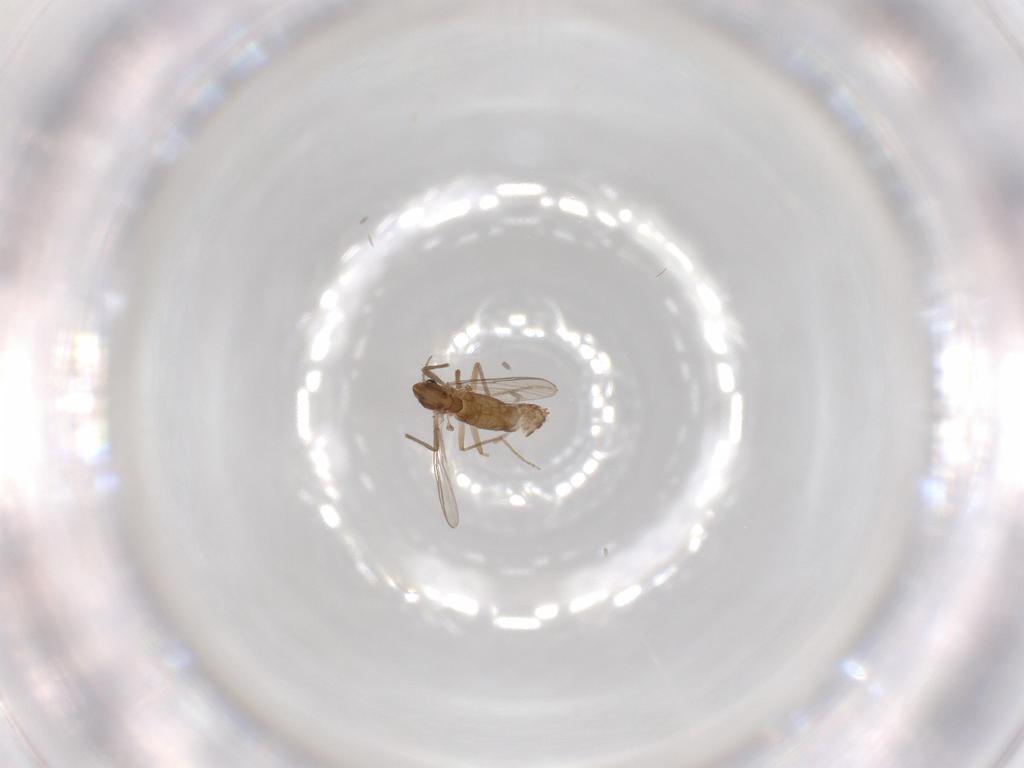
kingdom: Animalia
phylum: Arthropoda
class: Insecta
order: Diptera
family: Chironomidae
